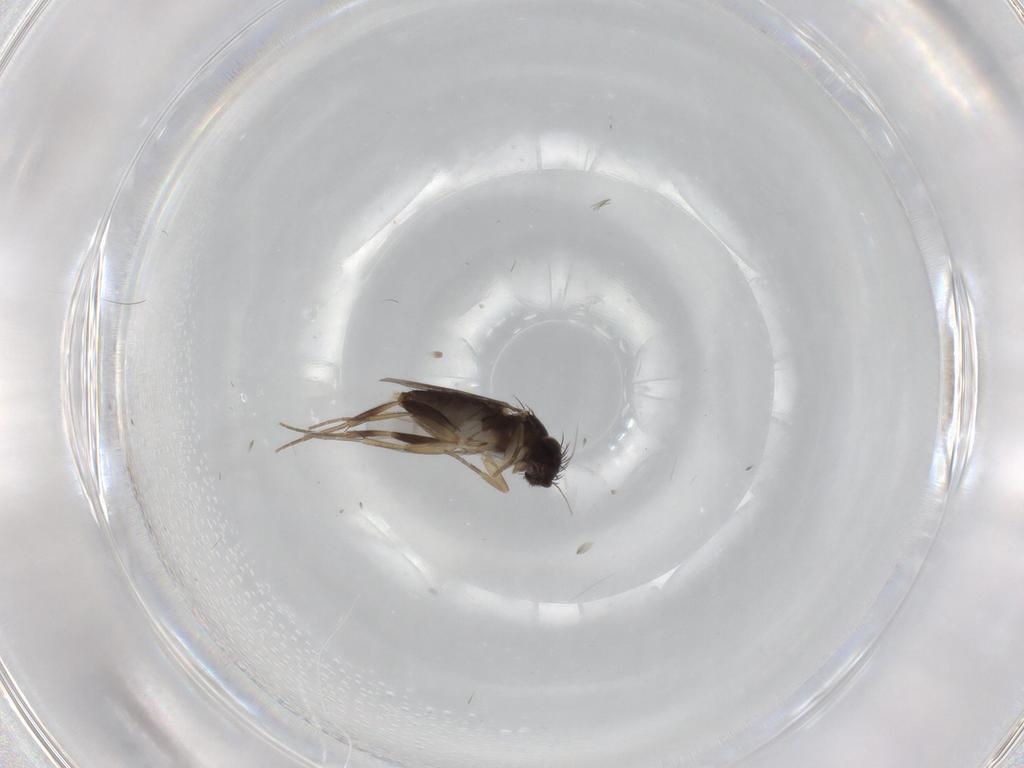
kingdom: Animalia
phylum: Arthropoda
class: Insecta
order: Diptera
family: Phoridae
